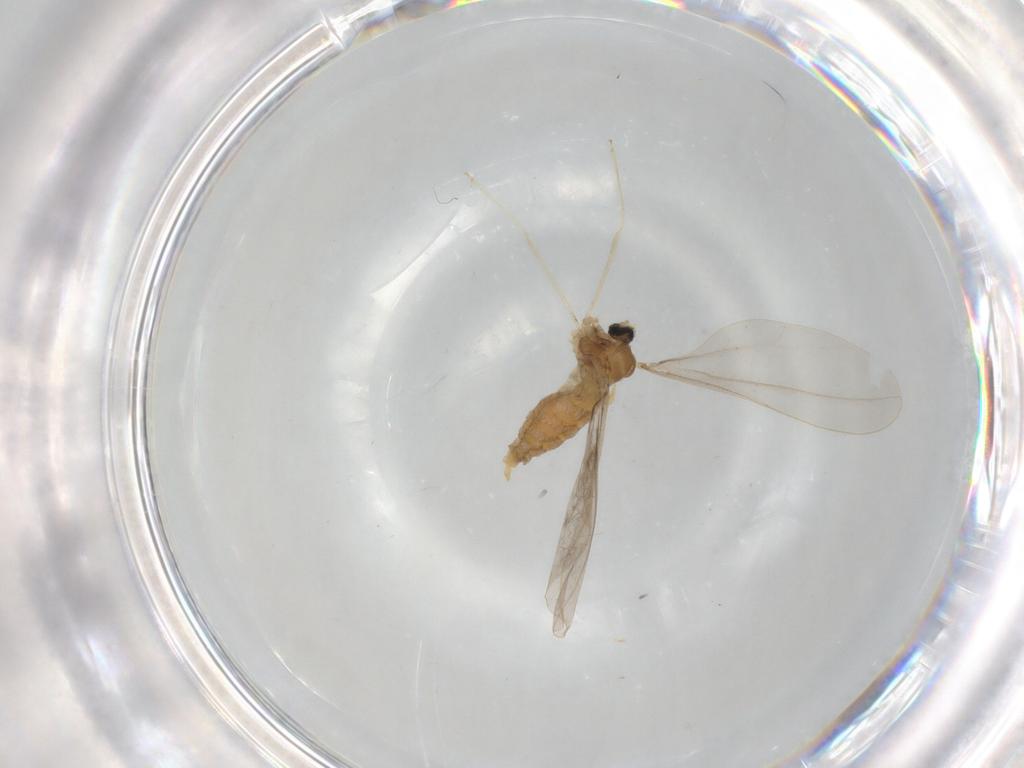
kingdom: Animalia
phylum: Arthropoda
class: Insecta
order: Diptera
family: Cecidomyiidae
